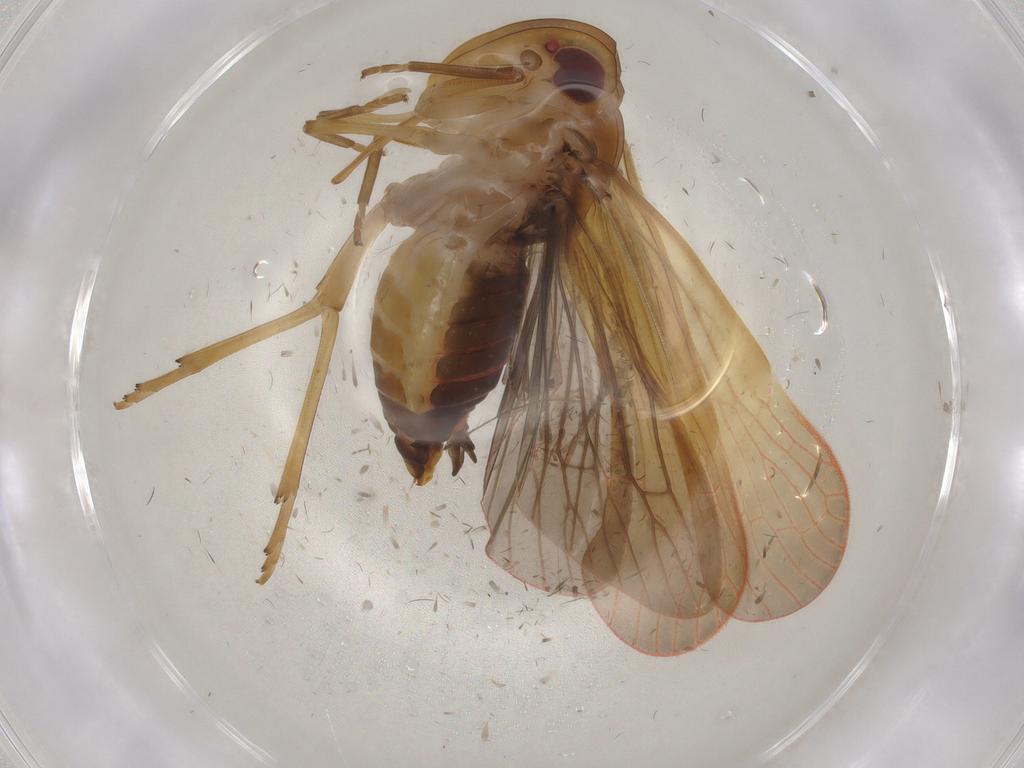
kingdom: Animalia
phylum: Arthropoda
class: Insecta
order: Hemiptera
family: Achilidae
